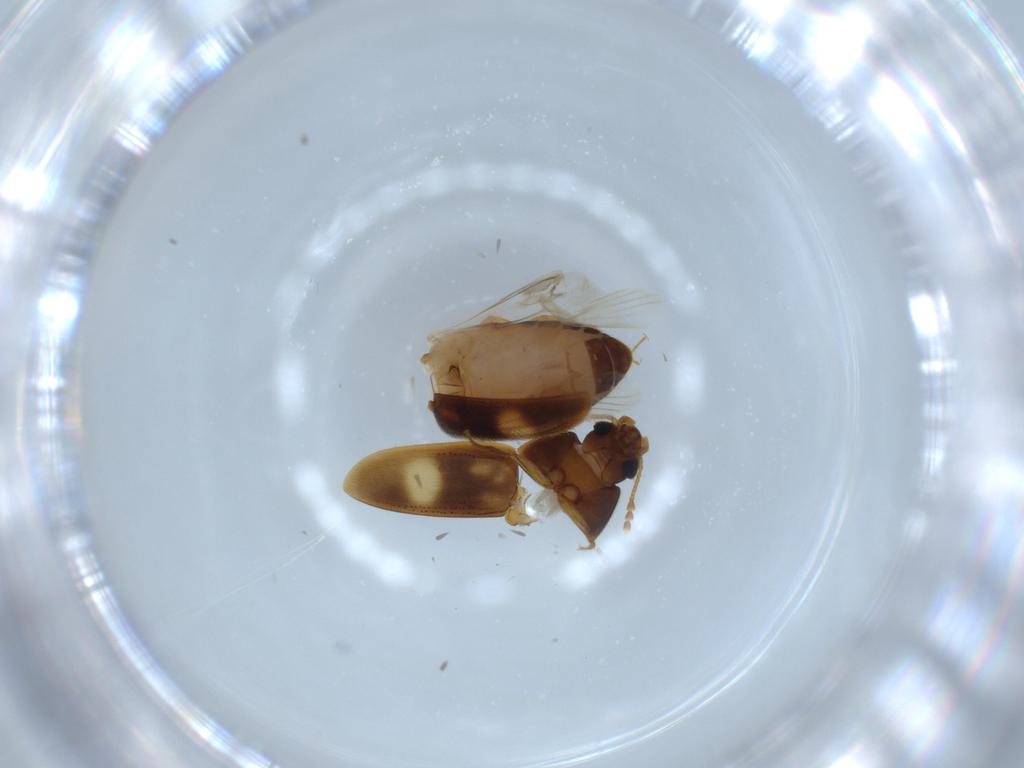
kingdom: Animalia
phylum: Arthropoda
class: Insecta
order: Coleoptera
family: Mycetophagidae
